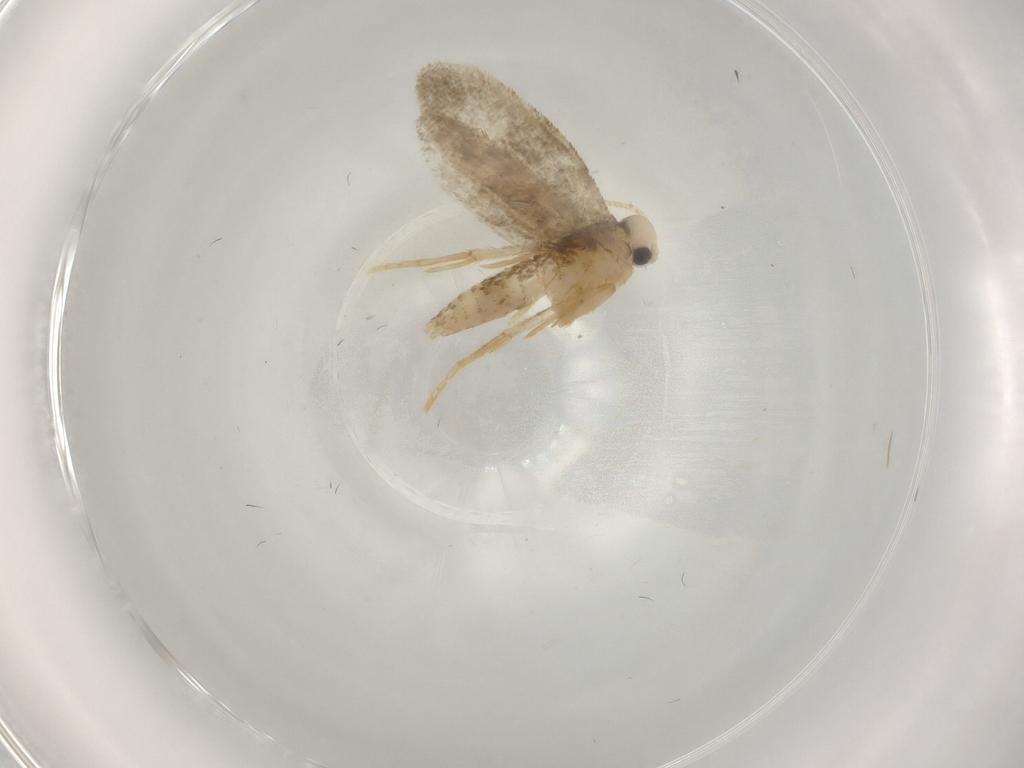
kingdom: Animalia
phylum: Arthropoda
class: Insecta
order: Lepidoptera
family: Psychidae
